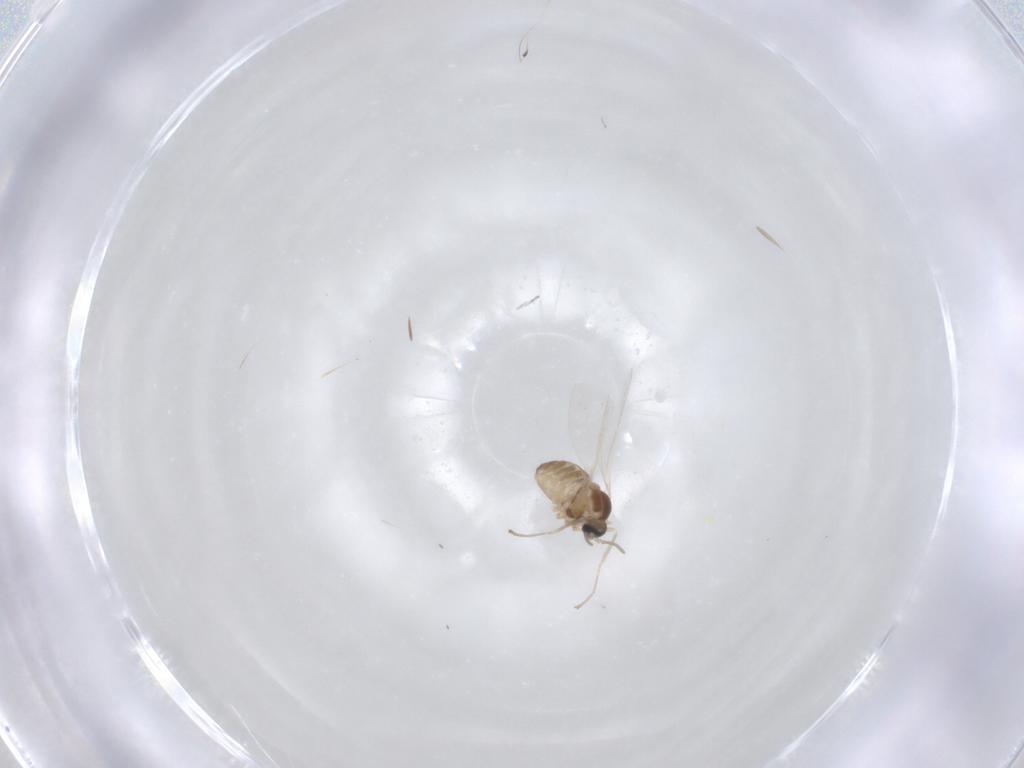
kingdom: Animalia
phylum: Arthropoda
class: Insecta
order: Diptera
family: Cecidomyiidae
